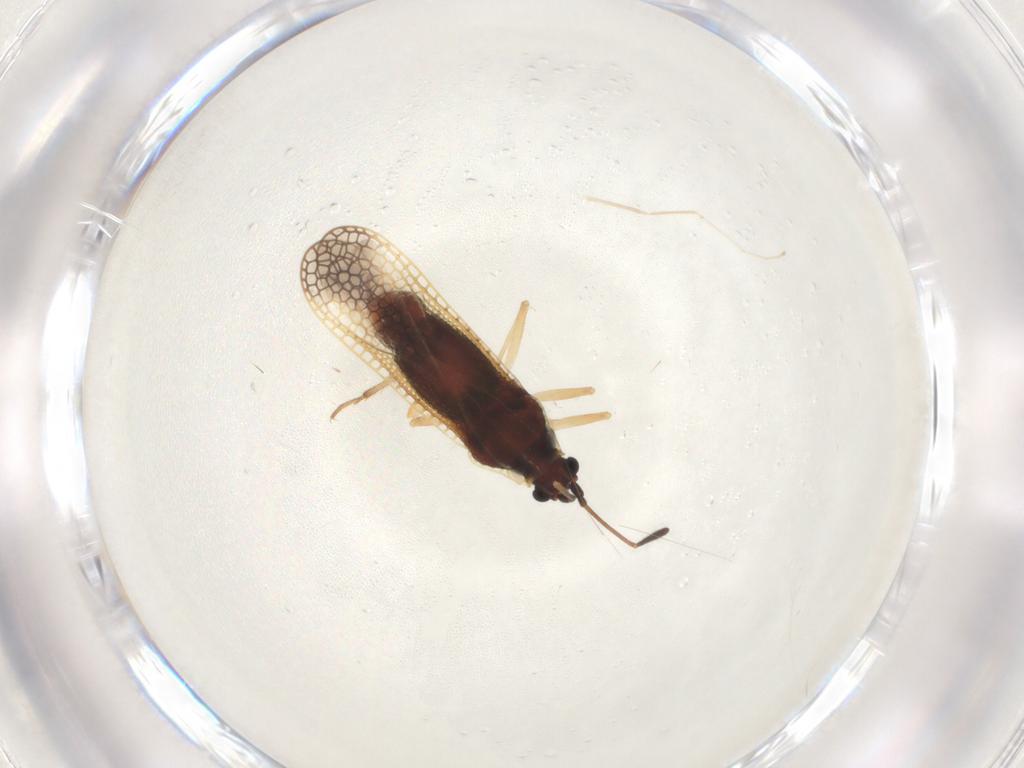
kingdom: Animalia
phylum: Arthropoda
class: Insecta
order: Hemiptera
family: Tingidae
